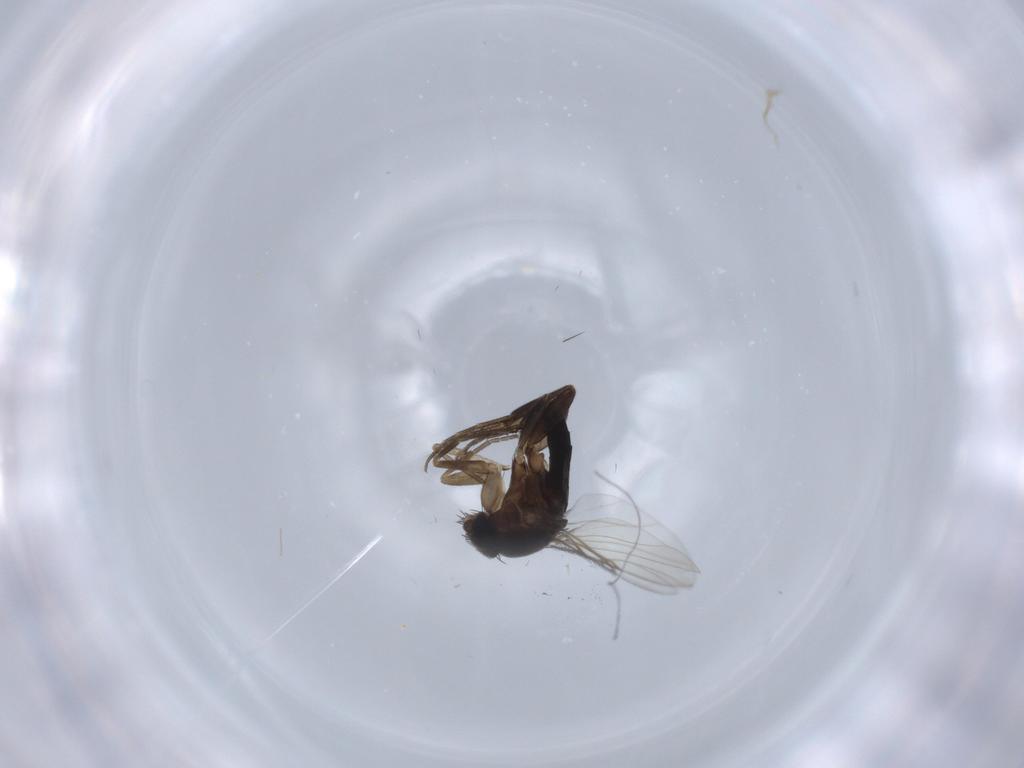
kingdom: Animalia
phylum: Arthropoda
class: Insecta
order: Diptera
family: Phoridae
